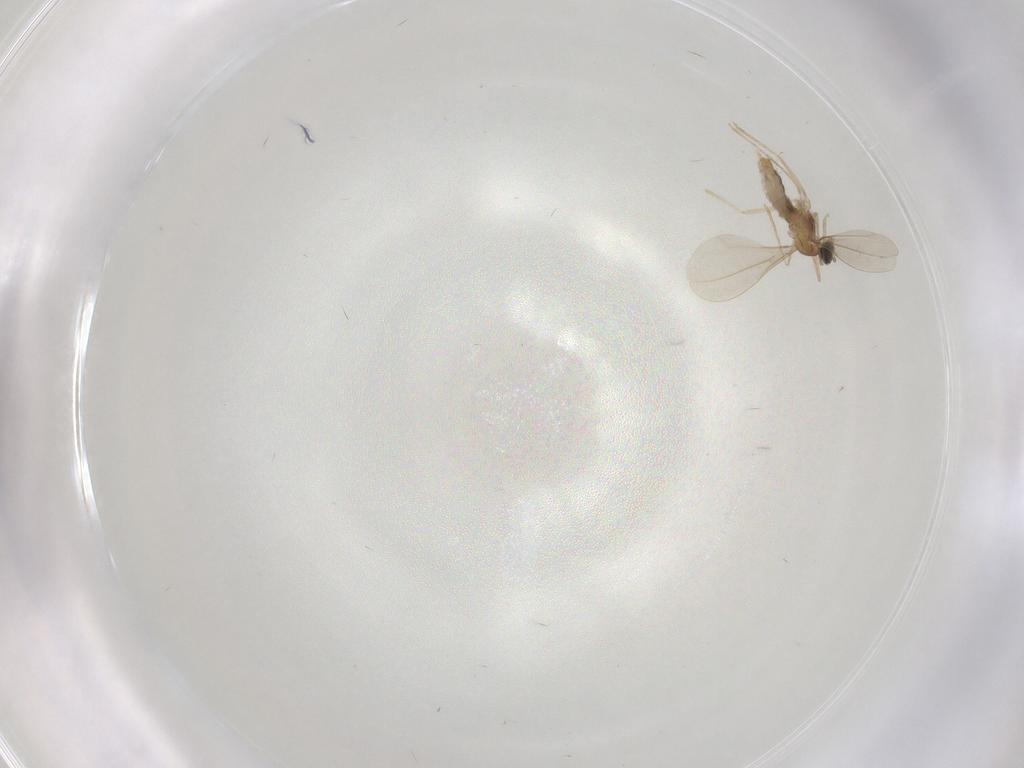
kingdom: Animalia
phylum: Arthropoda
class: Insecta
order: Diptera
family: Cecidomyiidae
